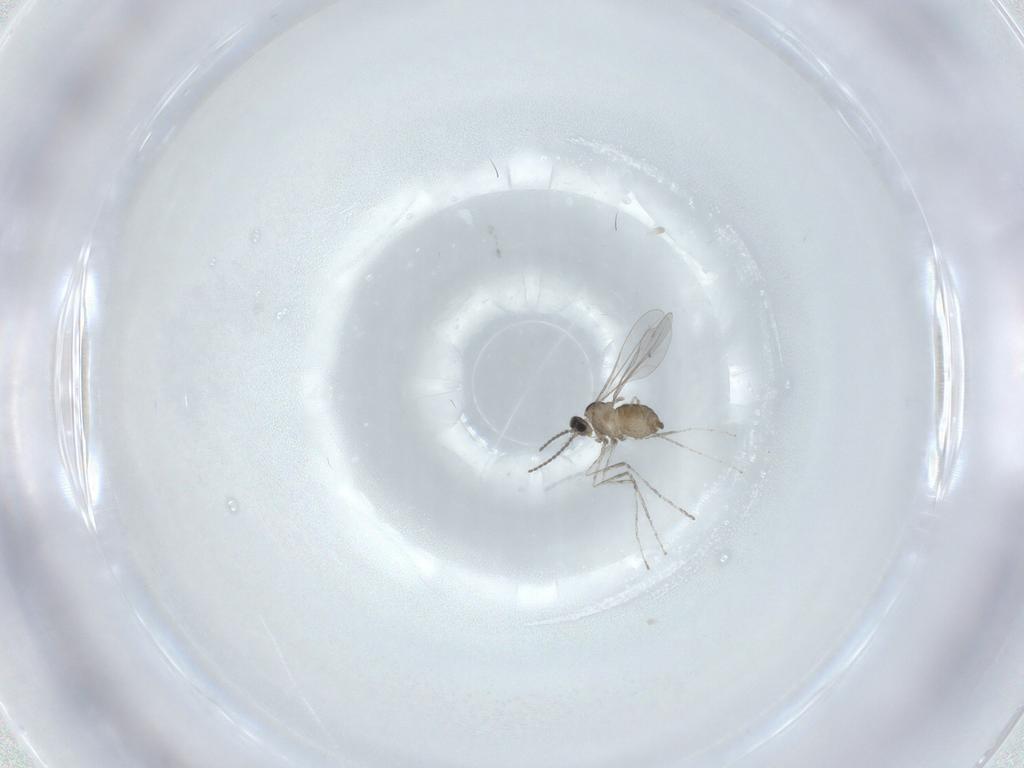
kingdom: Animalia
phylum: Arthropoda
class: Insecta
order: Diptera
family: Cecidomyiidae
